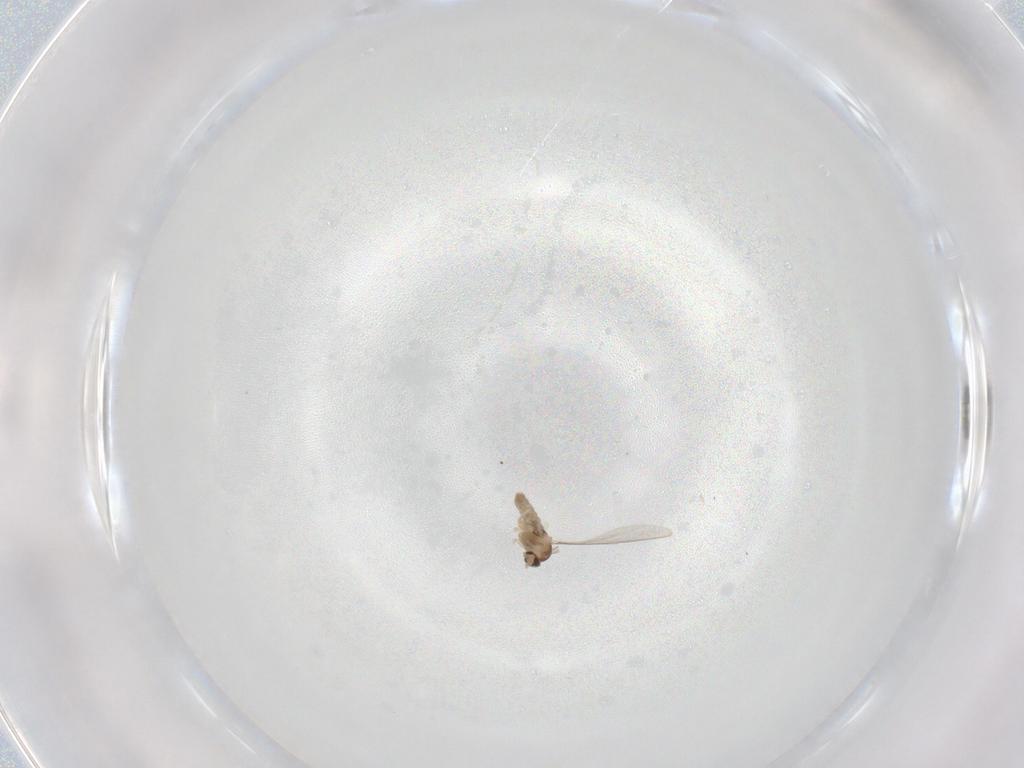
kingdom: Animalia
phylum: Arthropoda
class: Insecta
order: Diptera
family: Cecidomyiidae
